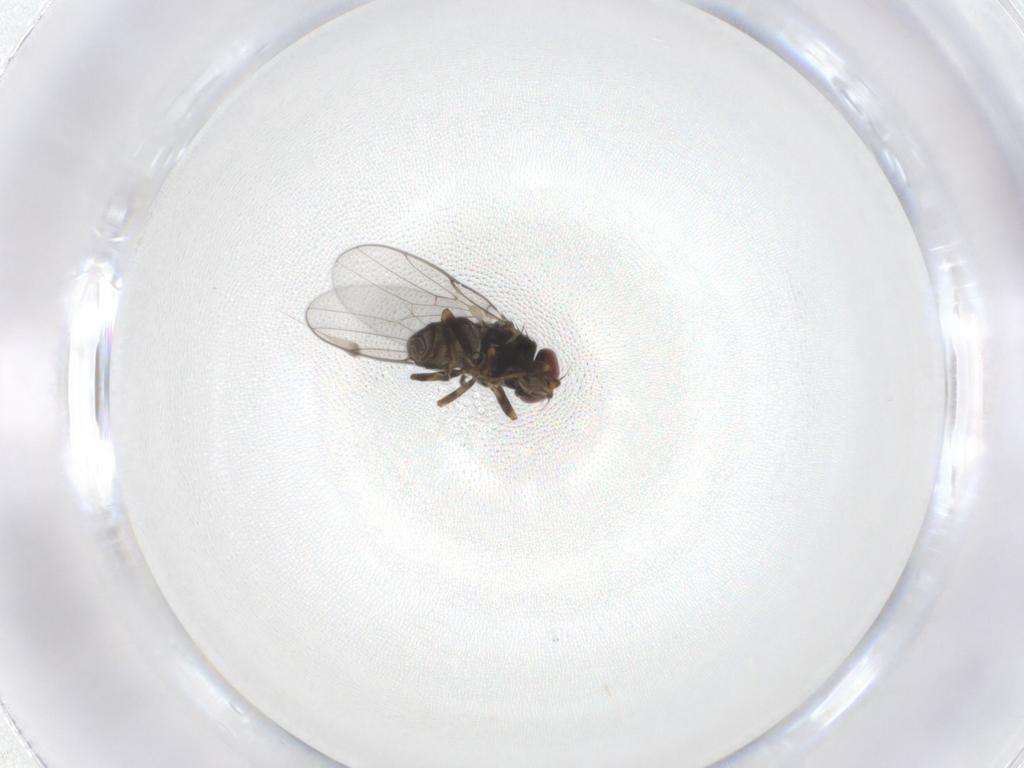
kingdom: Animalia
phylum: Arthropoda
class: Insecta
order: Diptera
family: Chloropidae
